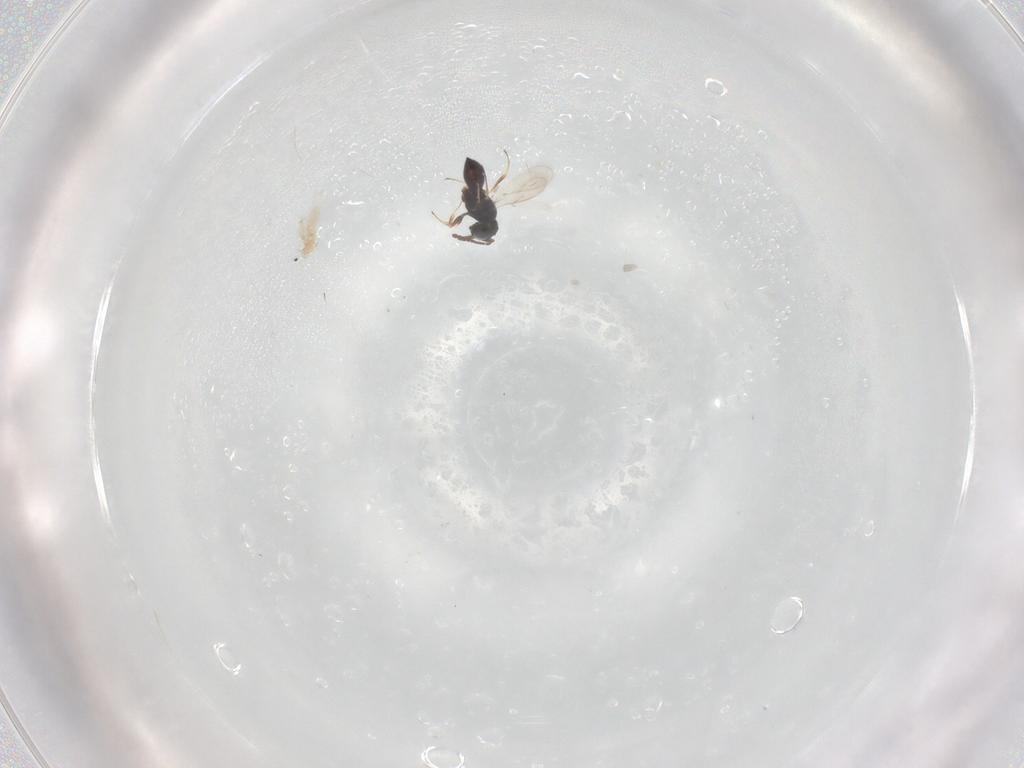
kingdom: Animalia
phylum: Arthropoda
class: Insecta
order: Hymenoptera
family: Scelionidae
